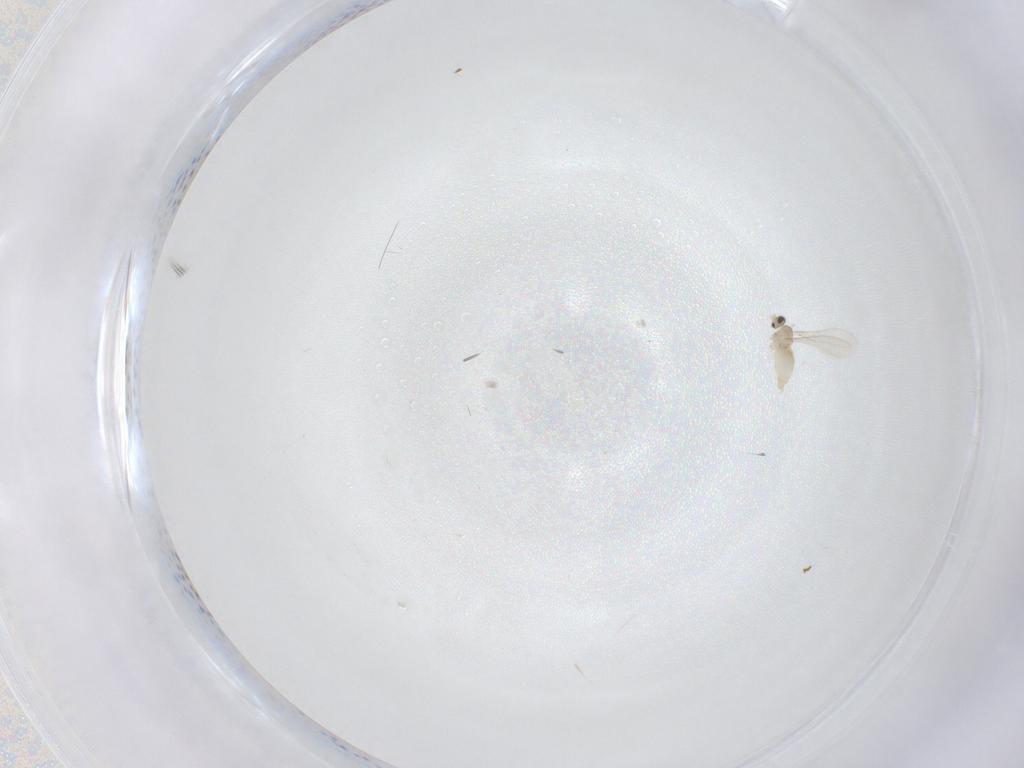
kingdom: Animalia
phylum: Arthropoda
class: Insecta
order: Diptera
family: Cecidomyiidae
